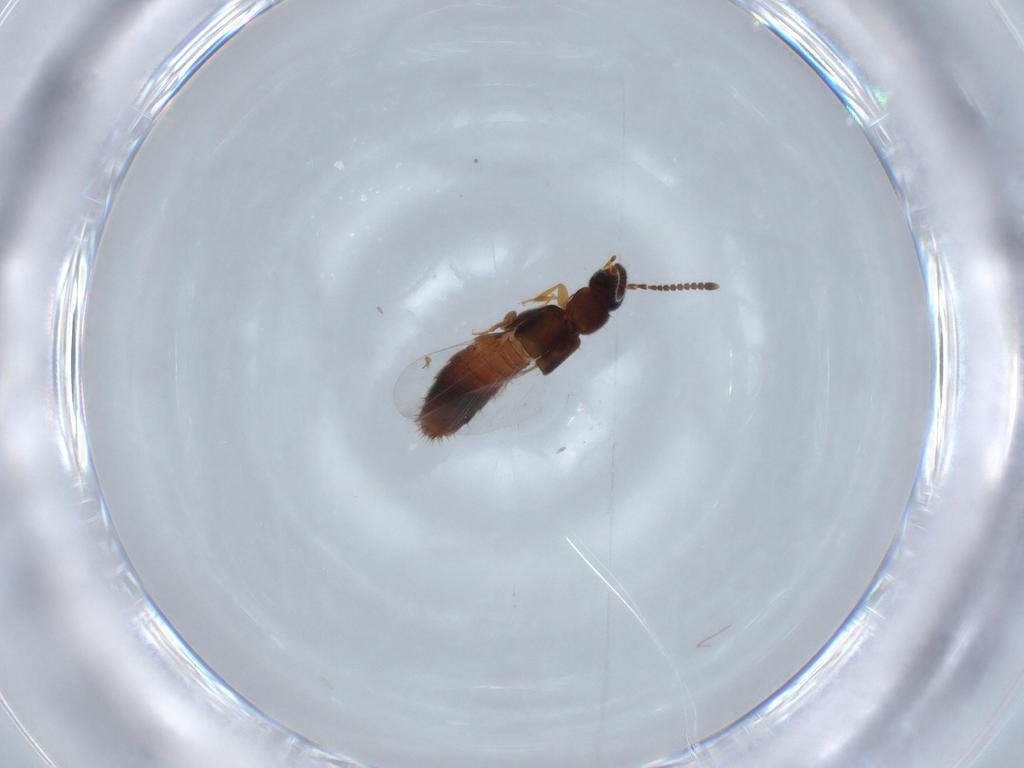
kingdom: Animalia
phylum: Arthropoda
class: Insecta
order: Coleoptera
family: Staphylinidae
